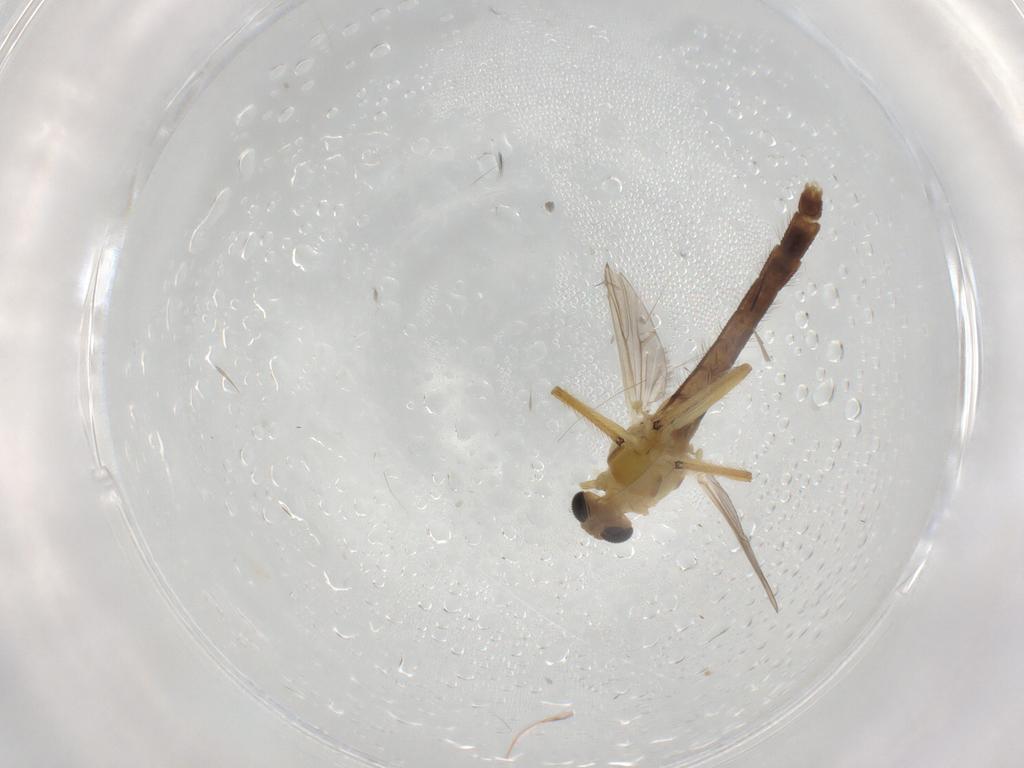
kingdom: Animalia
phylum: Arthropoda
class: Insecta
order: Diptera
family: Chironomidae
